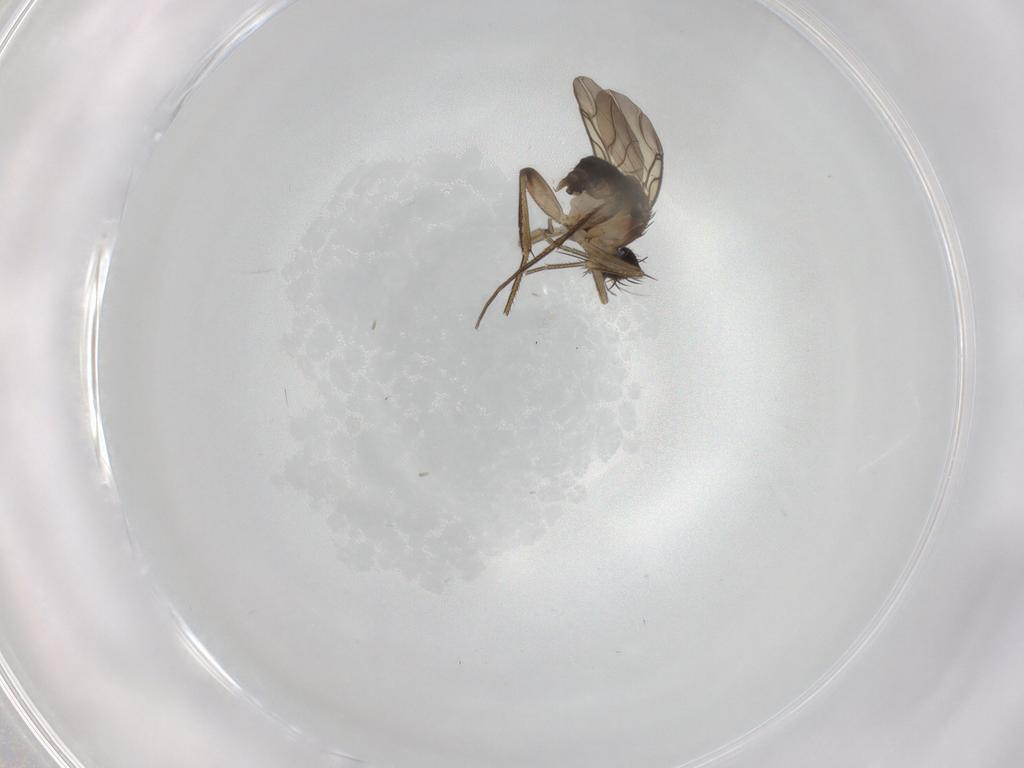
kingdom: Animalia
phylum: Arthropoda
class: Insecta
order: Diptera
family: Phoridae
